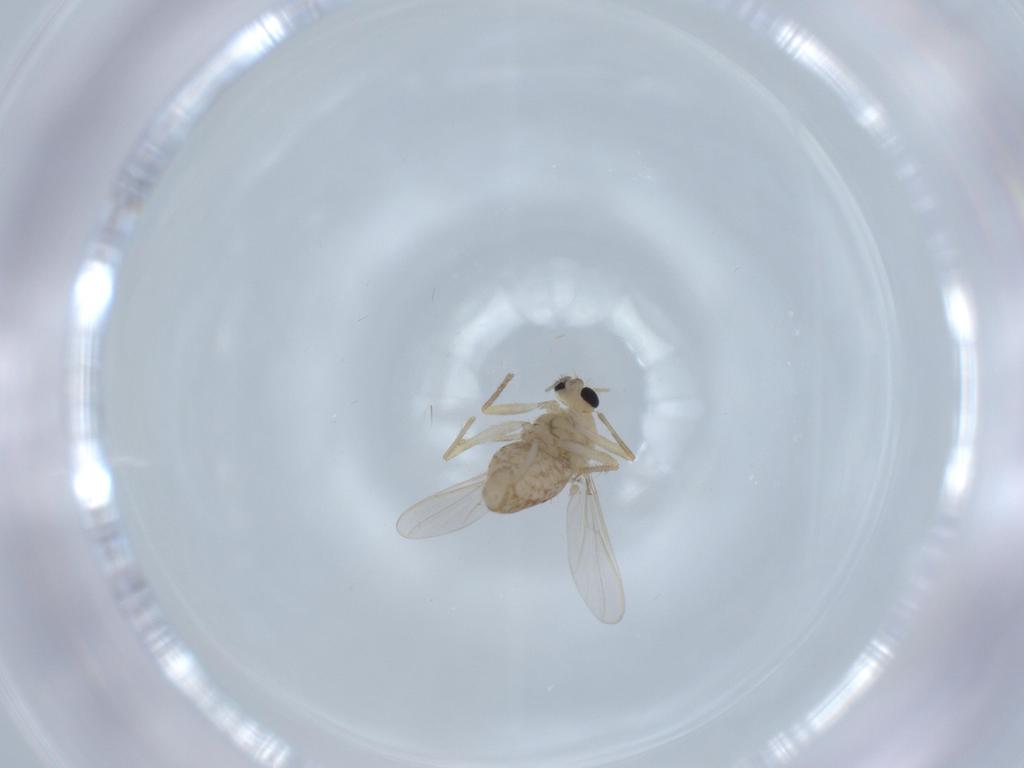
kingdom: Animalia
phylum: Arthropoda
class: Insecta
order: Diptera
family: Chironomidae
